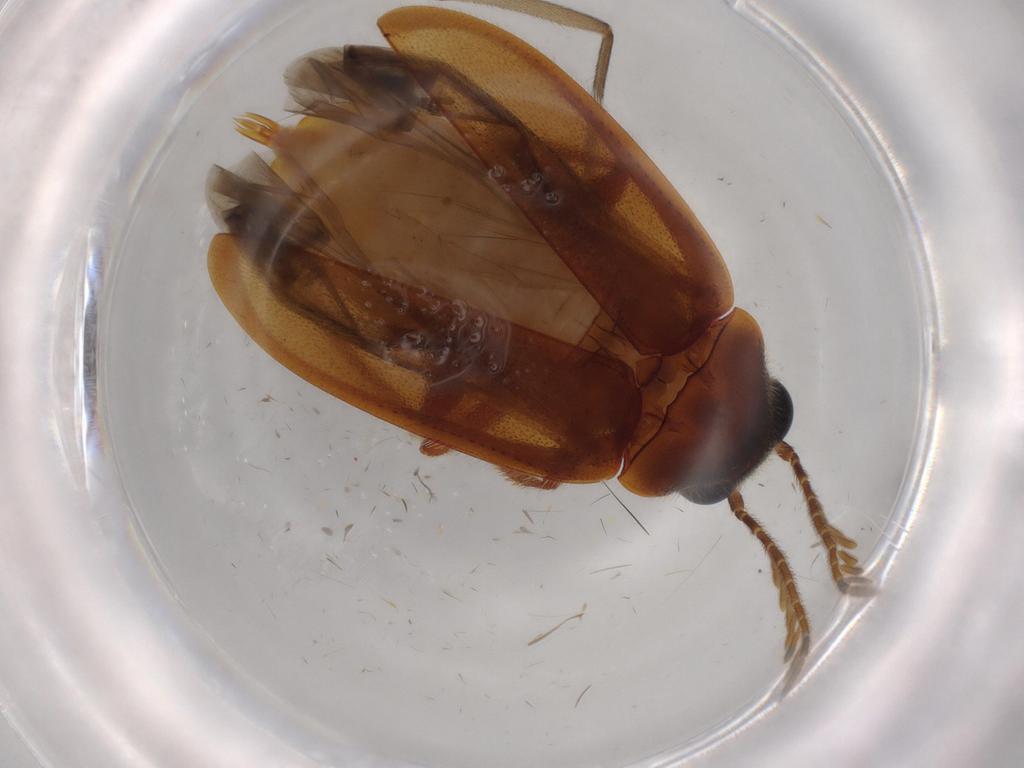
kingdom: Animalia
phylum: Arthropoda
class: Insecta
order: Coleoptera
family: Ptilodactylidae
